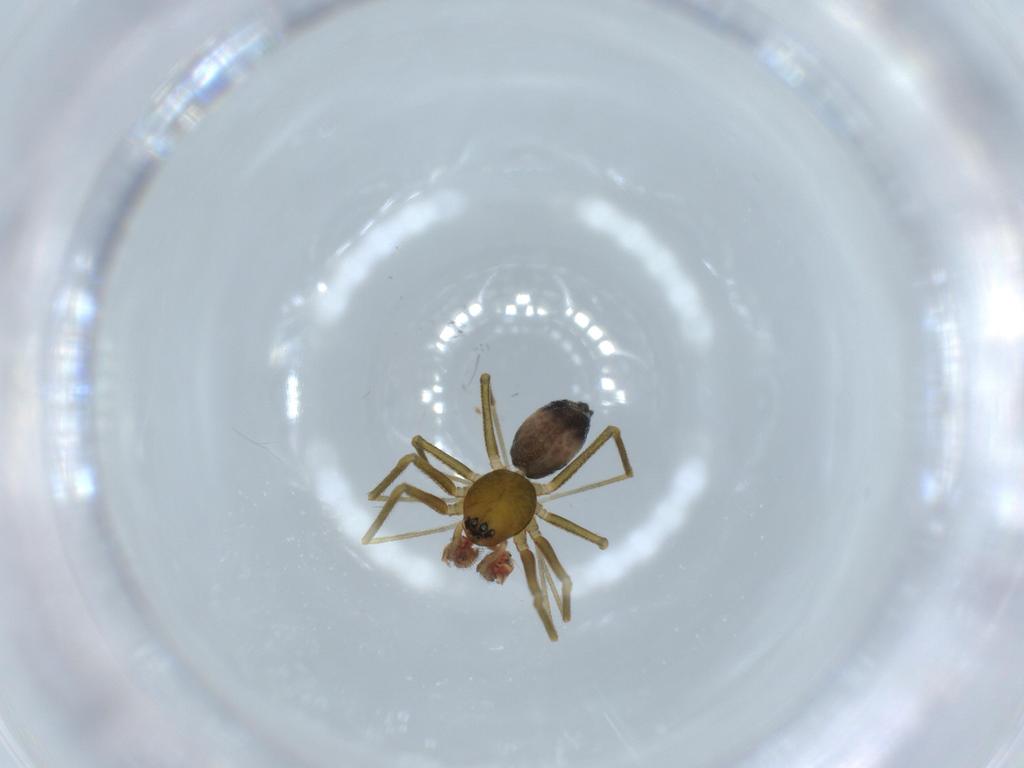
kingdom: Animalia
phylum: Arthropoda
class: Arachnida
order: Araneae
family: Linyphiidae
